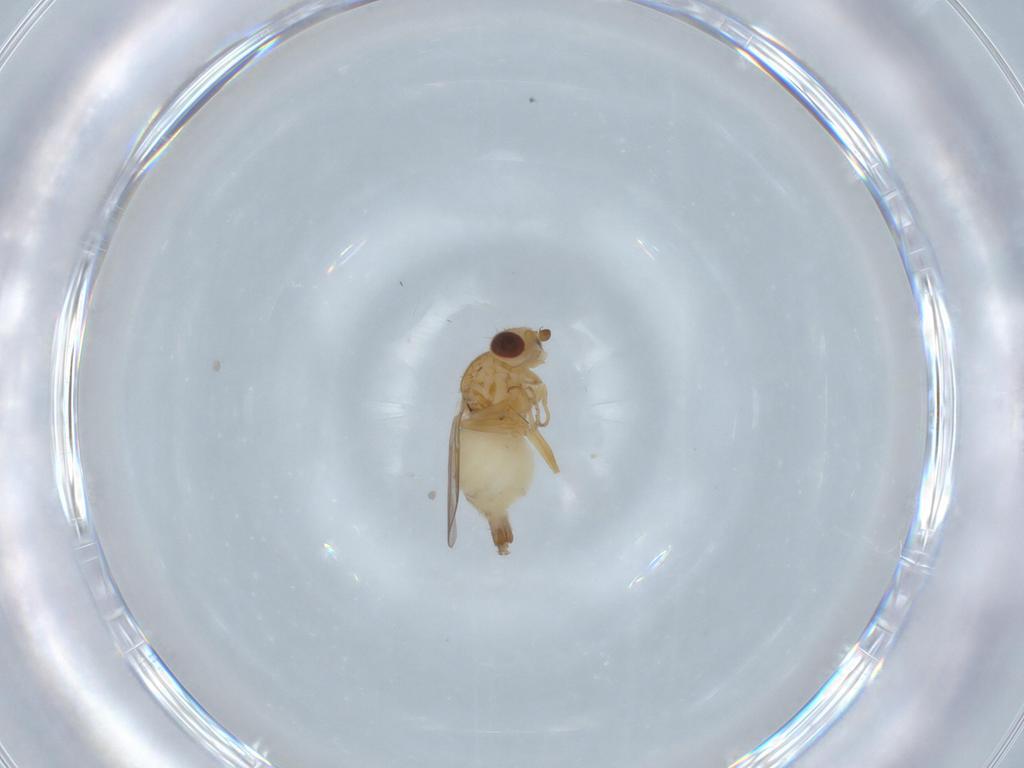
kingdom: Animalia
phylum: Arthropoda
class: Insecta
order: Diptera
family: Chloropidae
